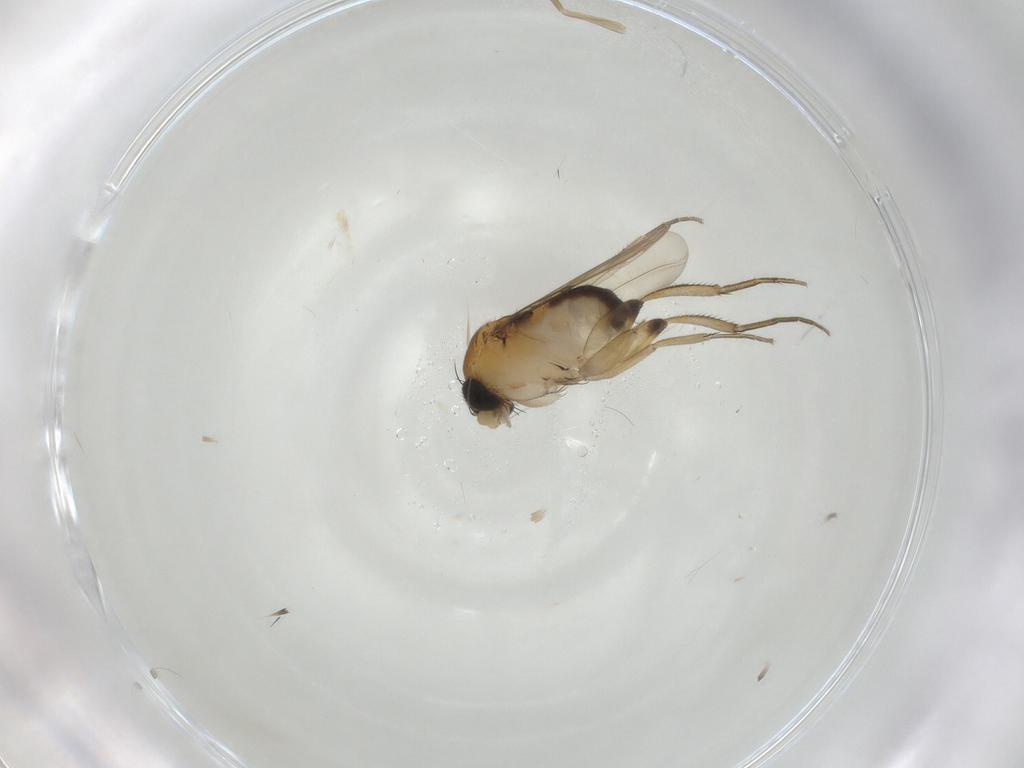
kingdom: Animalia
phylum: Arthropoda
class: Insecta
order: Diptera
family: Phoridae
